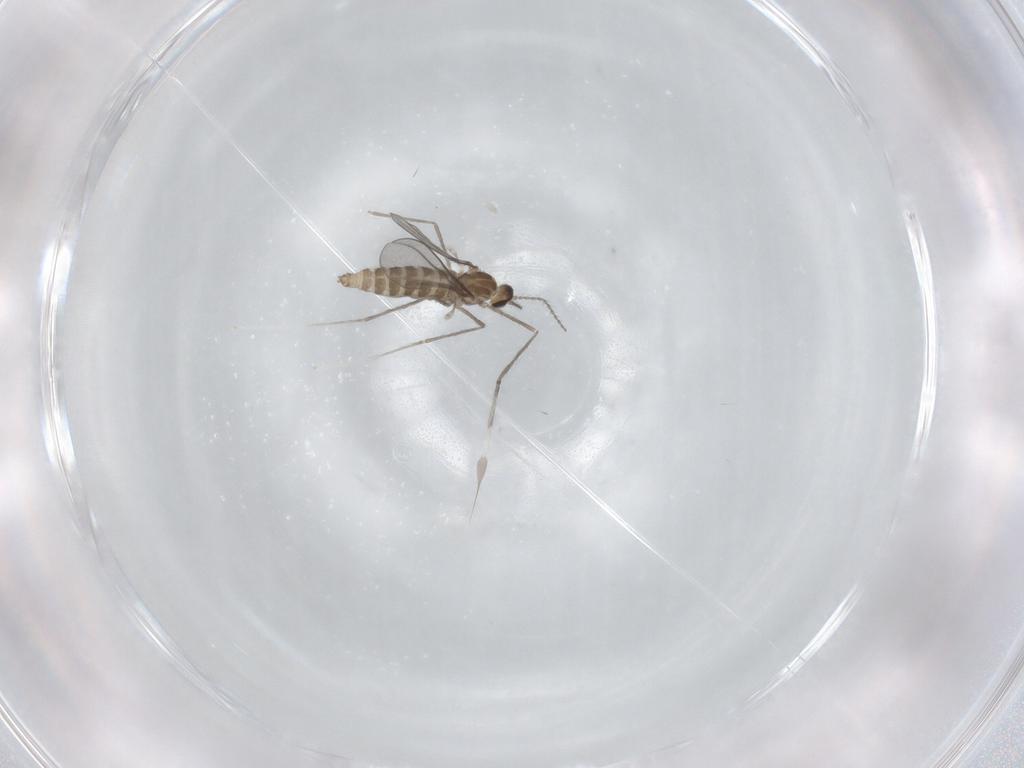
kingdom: Animalia
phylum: Arthropoda
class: Insecta
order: Diptera
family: Cecidomyiidae
